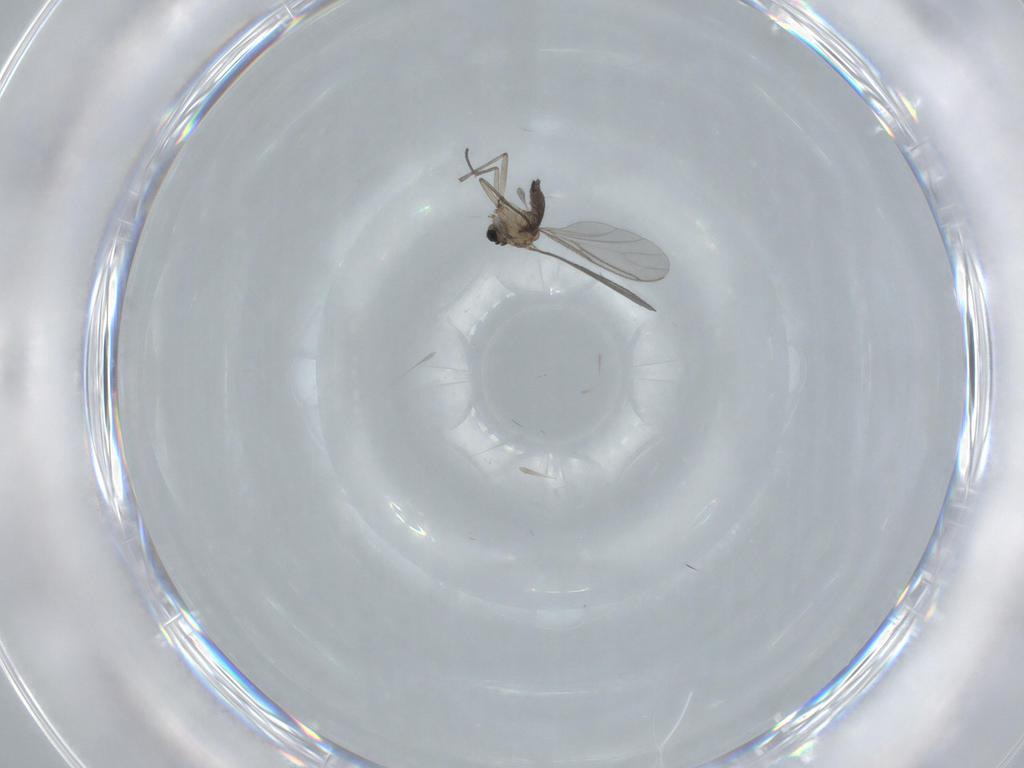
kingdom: Animalia
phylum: Arthropoda
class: Insecta
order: Diptera
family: Sciaridae
